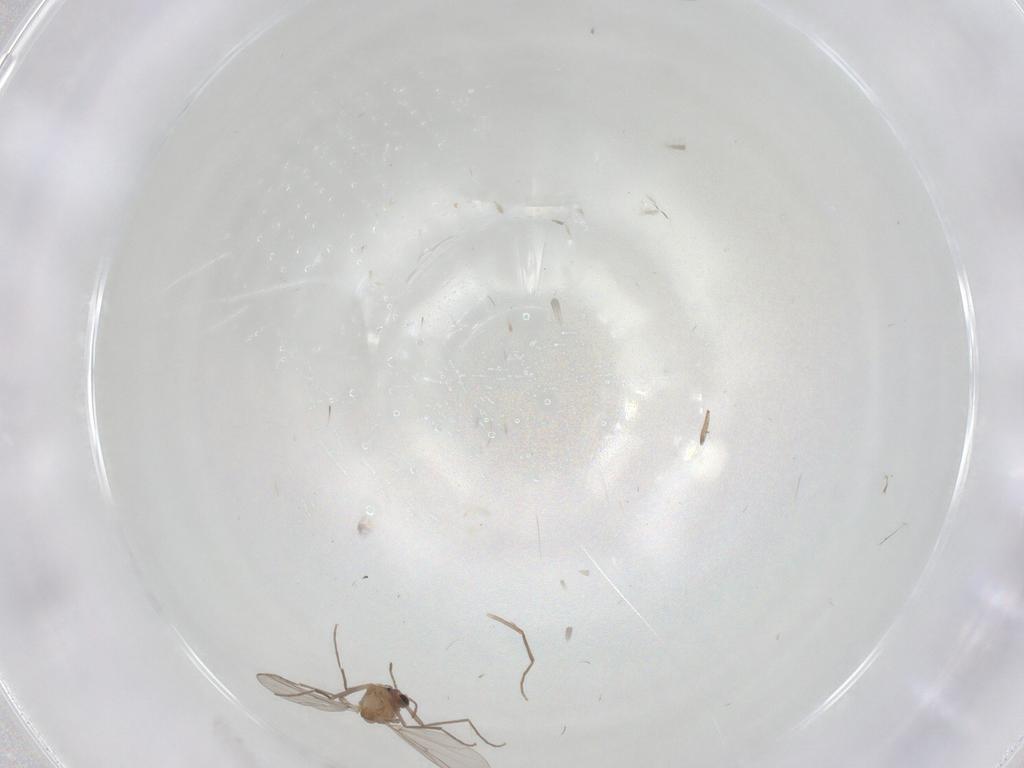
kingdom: Animalia
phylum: Arthropoda
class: Insecta
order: Diptera
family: Chironomidae
